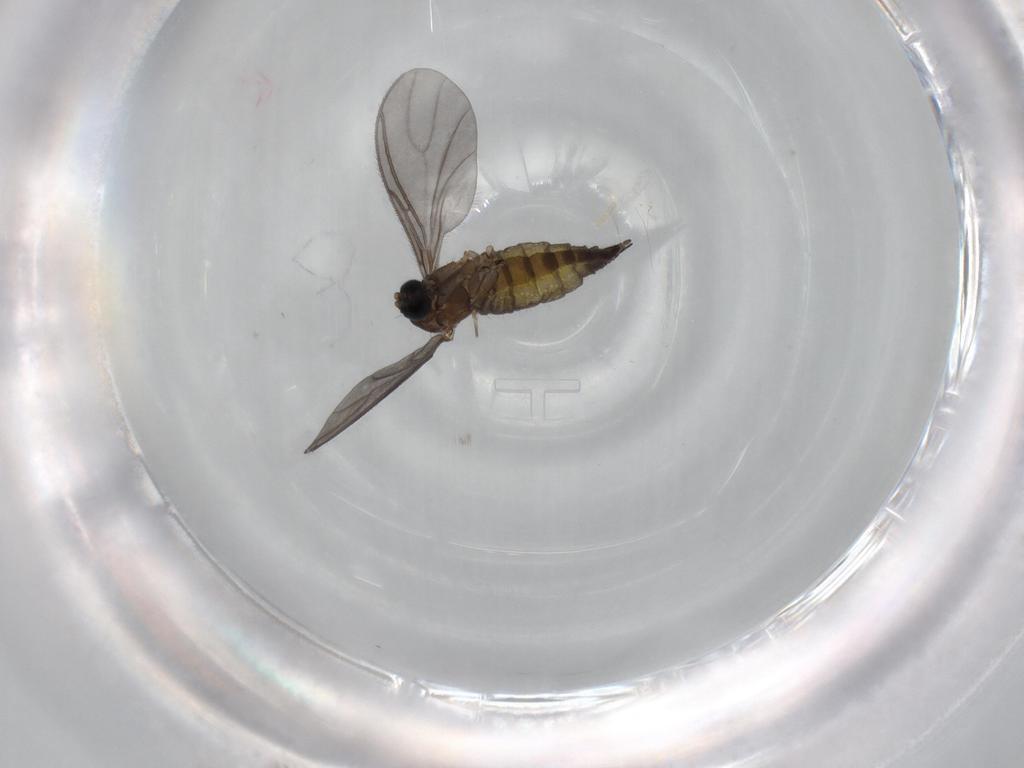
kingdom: Animalia
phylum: Arthropoda
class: Insecta
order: Diptera
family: Sciaridae
